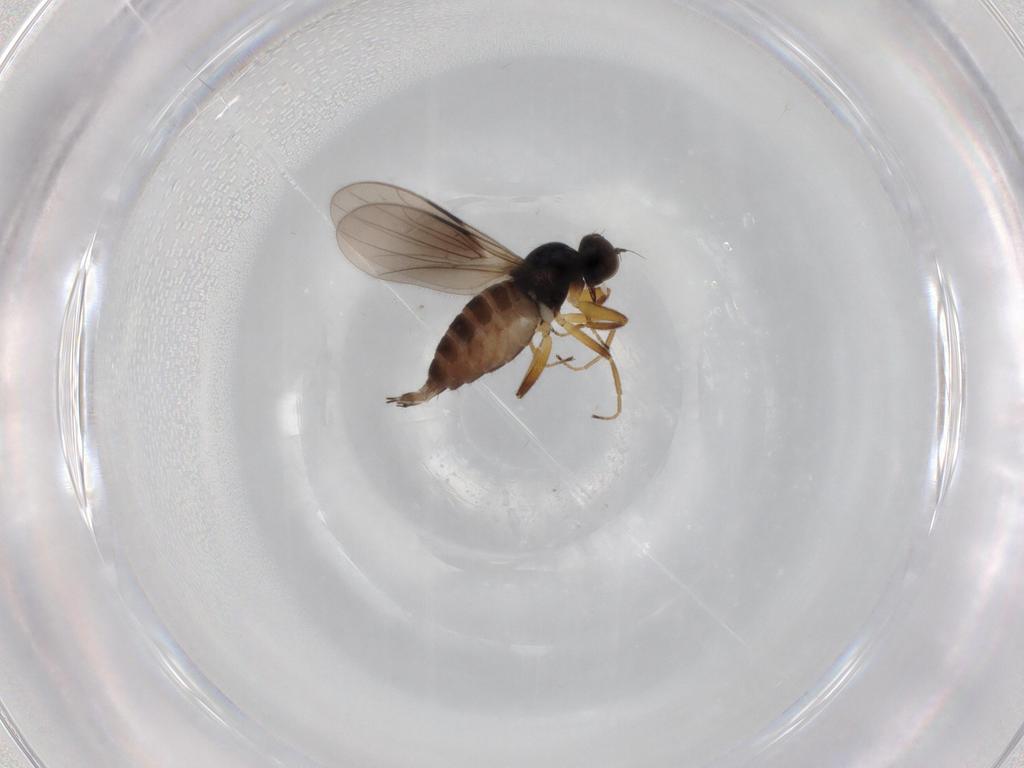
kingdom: Animalia
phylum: Arthropoda
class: Insecta
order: Diptera
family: Hybotidae
